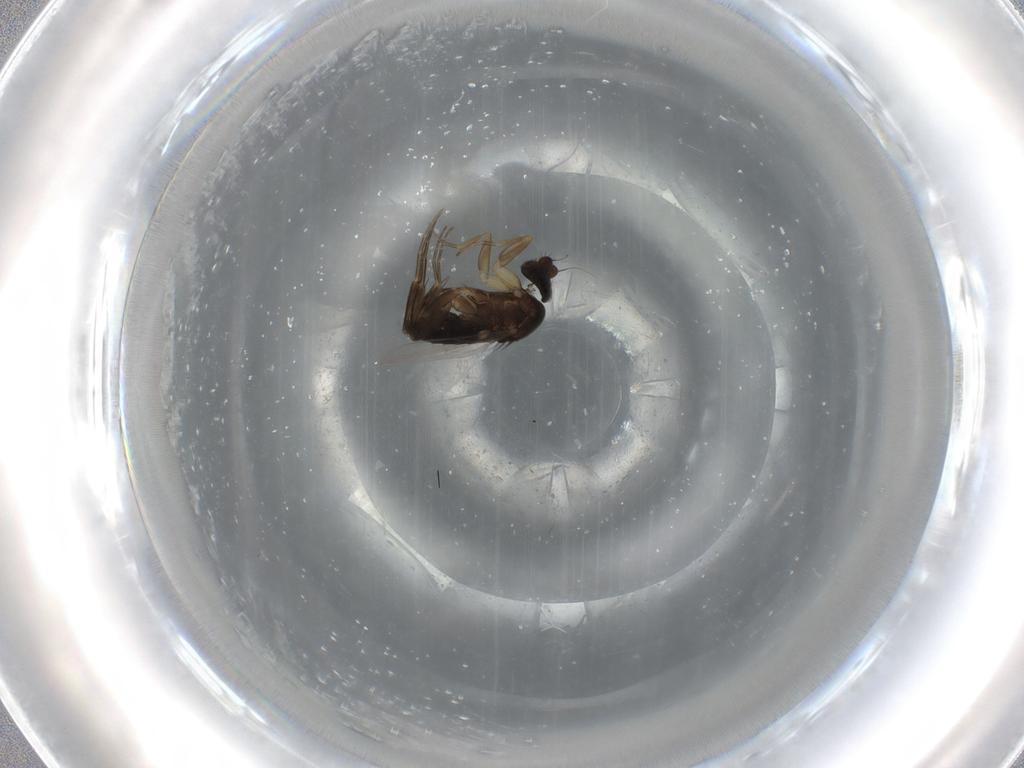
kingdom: Animalia
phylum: Arthropoda
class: Insecta
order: Diptera
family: Phoridae
